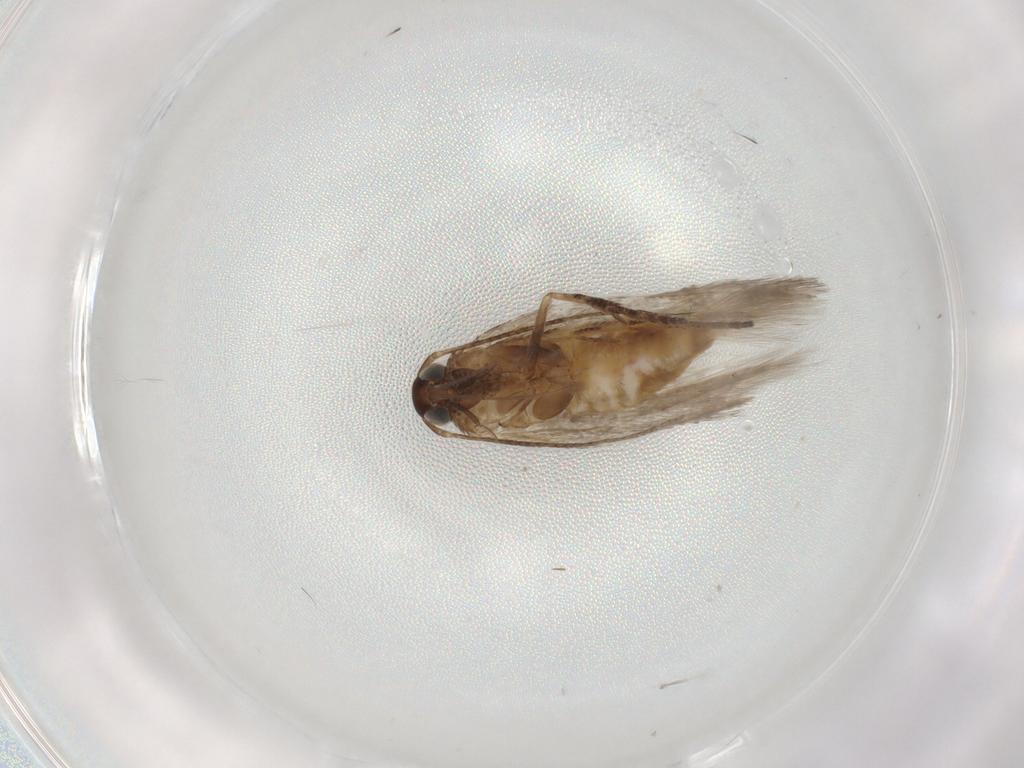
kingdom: Animalia
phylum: Arthropoda
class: Insecta
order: Lepidoptera
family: Gelechiidae
